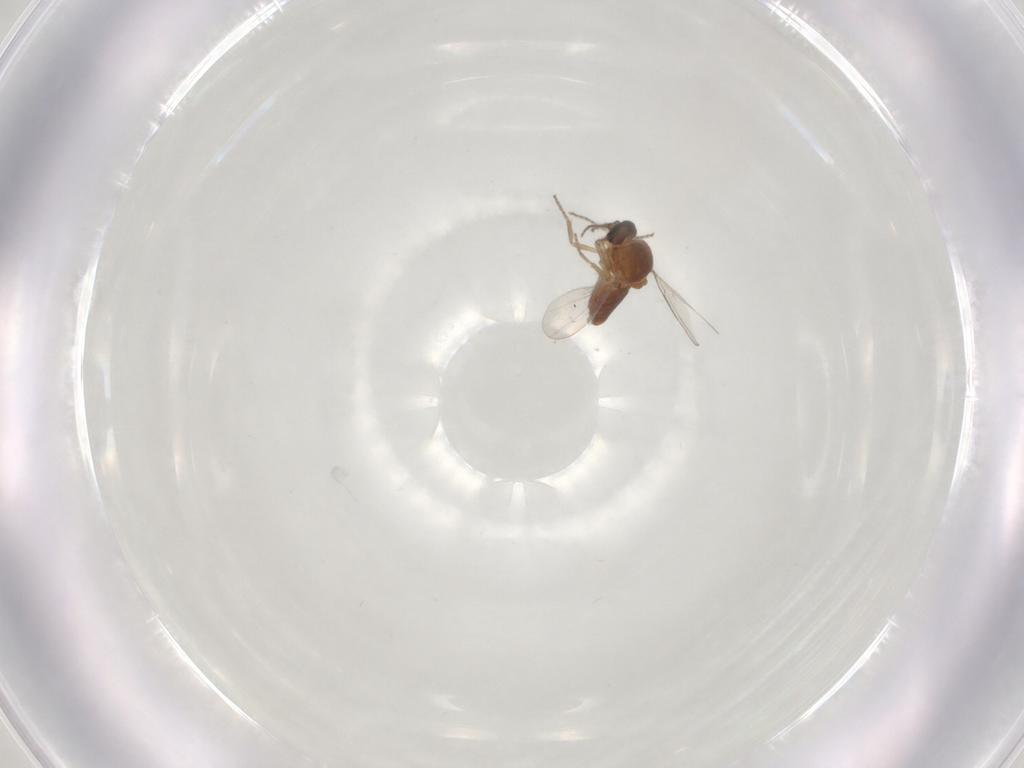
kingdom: Animalia
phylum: Arthropoda
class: Insecta
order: Diptera
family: Ceratopogonidae
